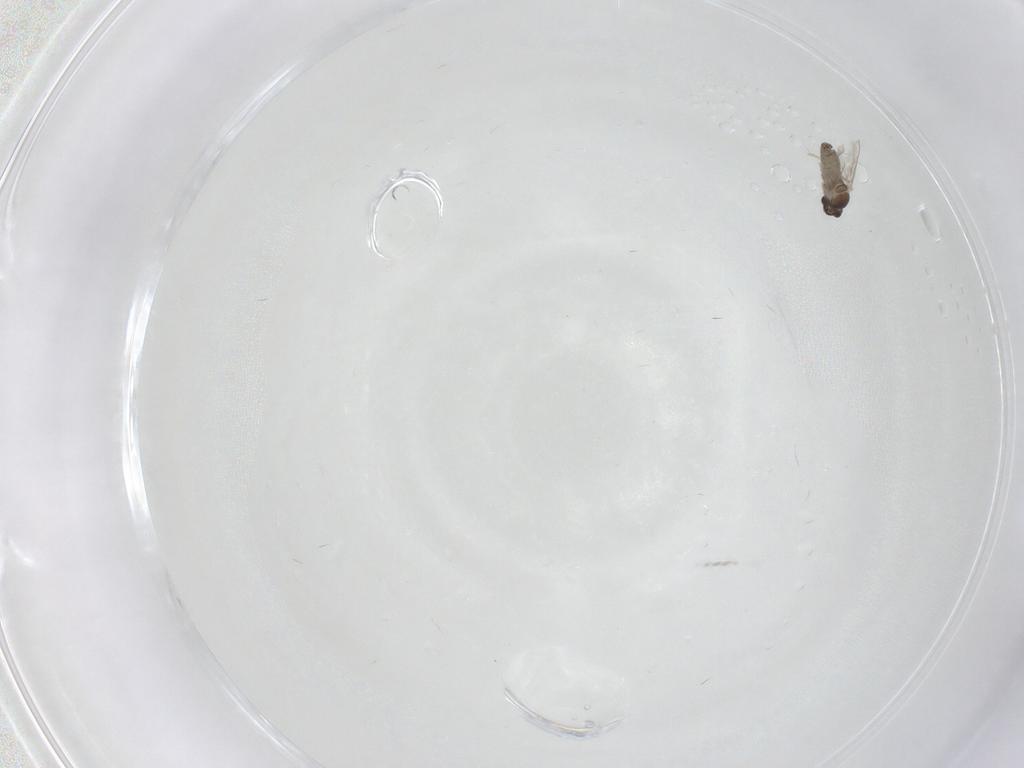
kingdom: Animalia
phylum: Arthropoda
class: Insecta
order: Diptera
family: Cecidomyiidae
